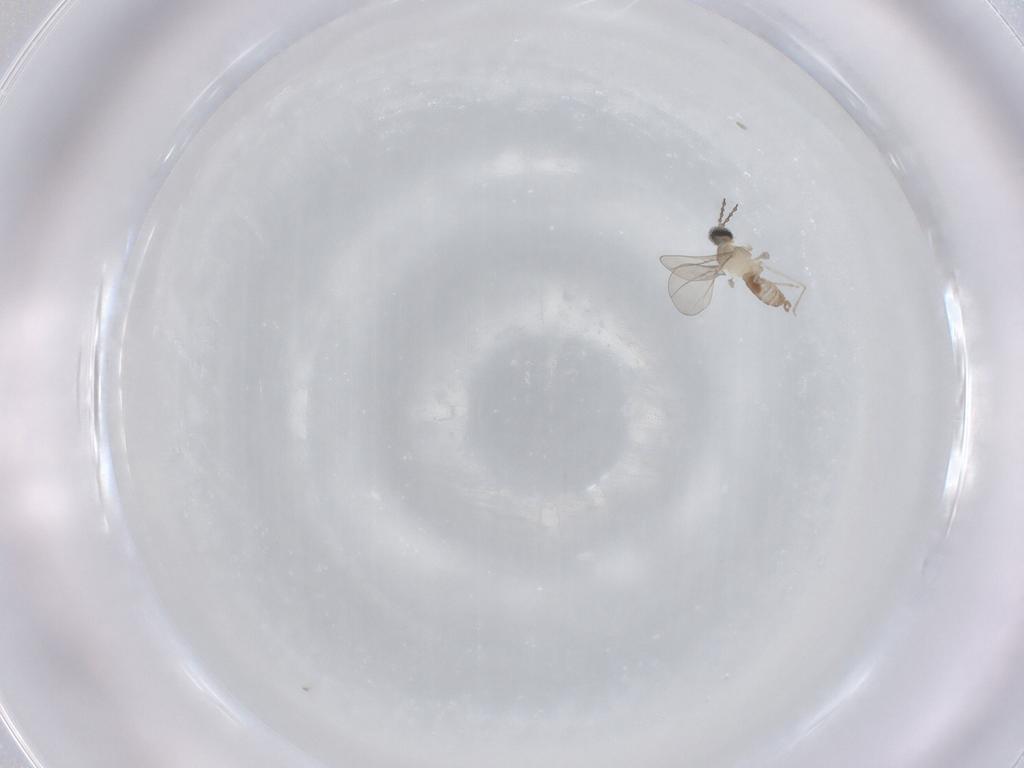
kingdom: Animalia
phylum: Arthropoda
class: Insecta
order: Diptera
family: Cecidomyiidae
